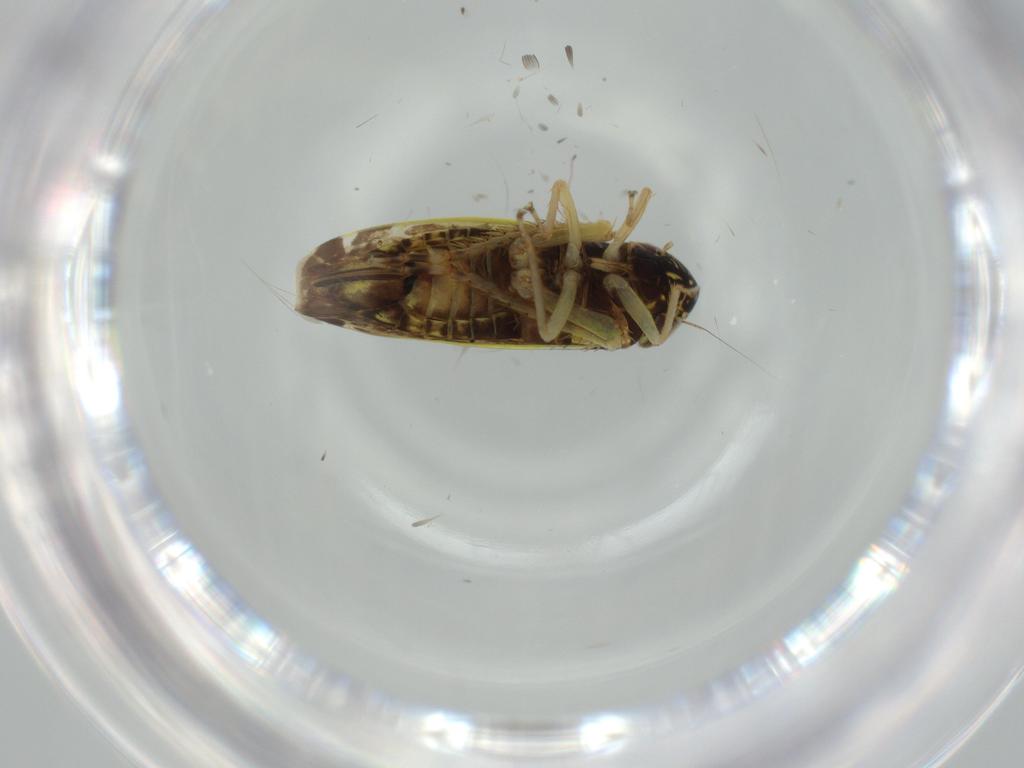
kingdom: Animalia
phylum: Arthropoda
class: Insecta
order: Hemiptera
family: Cicadellidae
